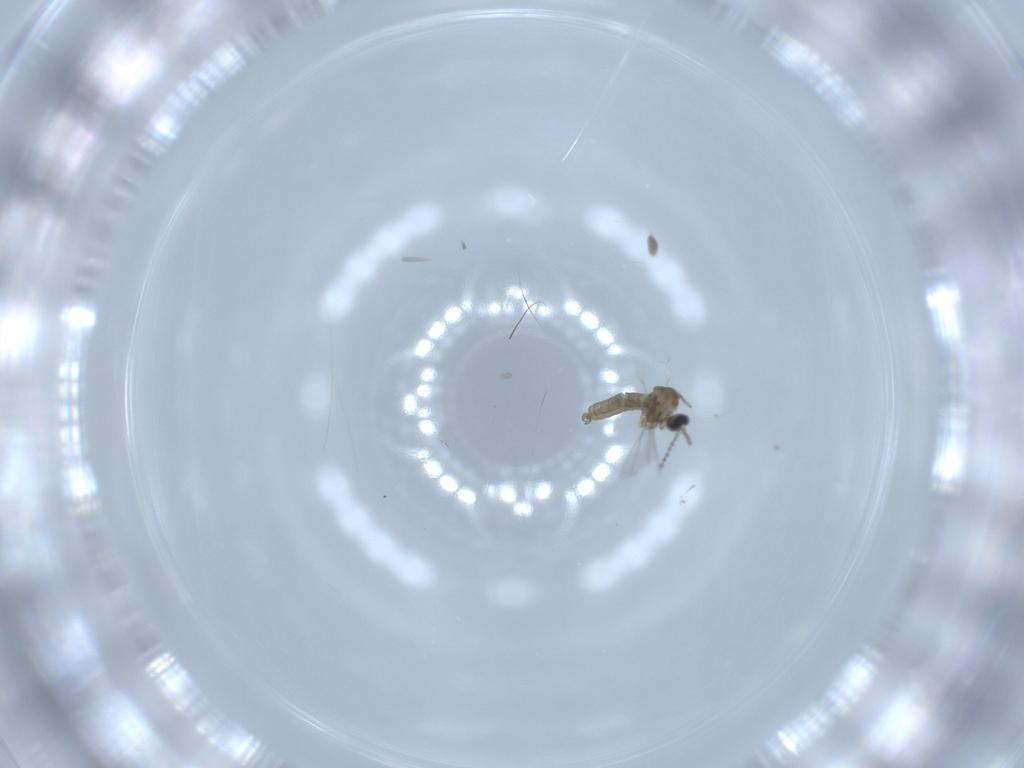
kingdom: Animalia
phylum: Arthropoda
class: Insecta
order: Diptera
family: Cecidomyiidae
